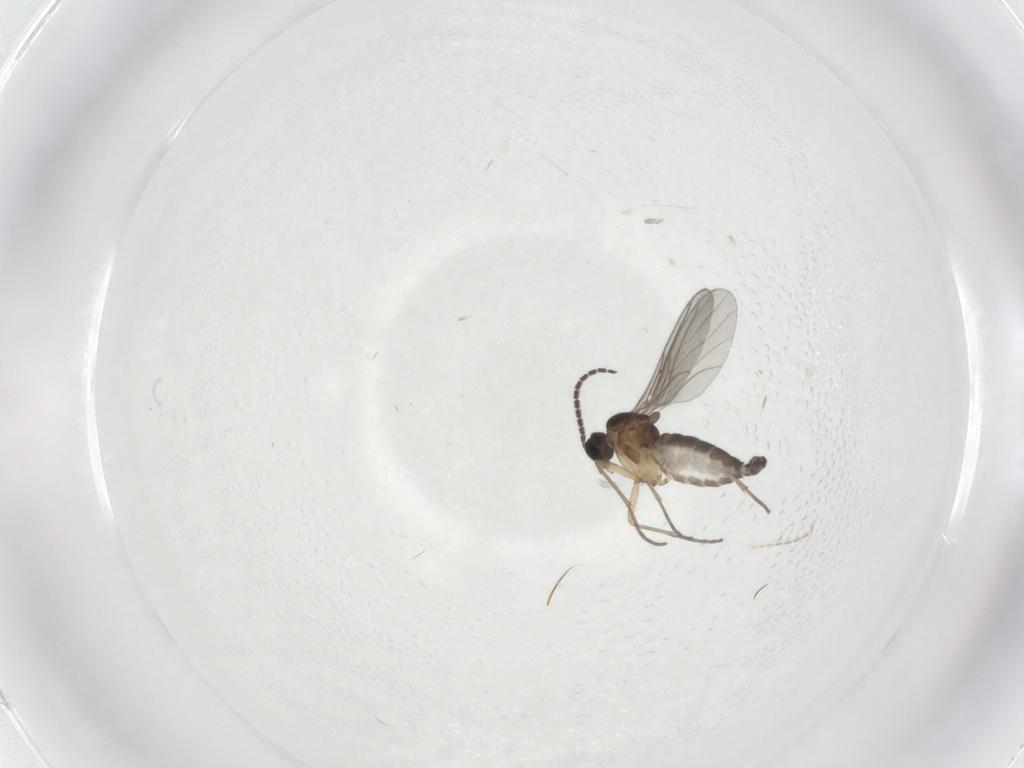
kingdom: Animalia
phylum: Arthropoda
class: Insecta
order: Diptera
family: Sciaridae
